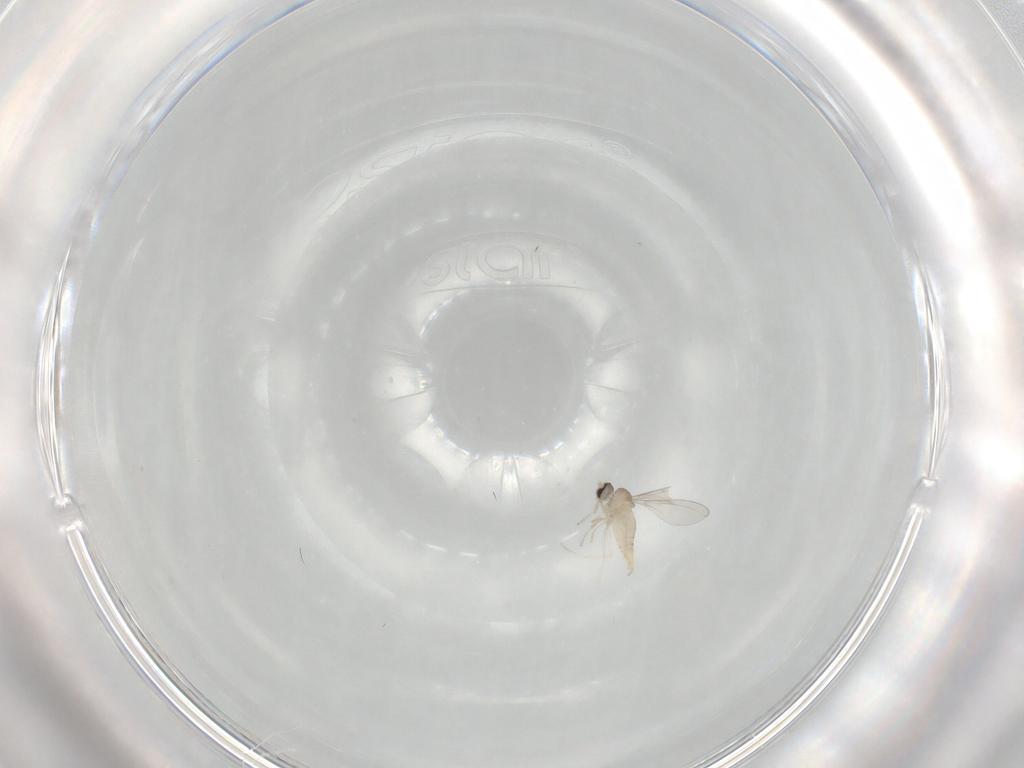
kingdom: Animalia
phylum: Arthropoda
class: Insecta
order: Diptera
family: Cecidomyiidae
